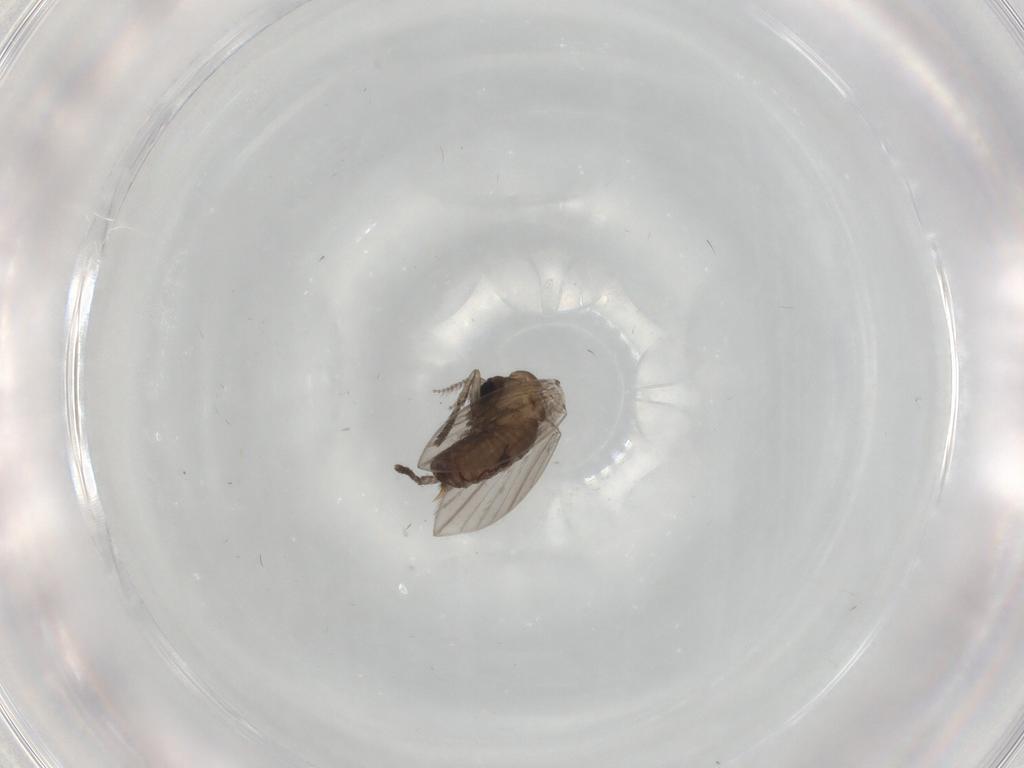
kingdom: Animalia
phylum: Arthropoda
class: Insecta
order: Diptera
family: Psychodidae
